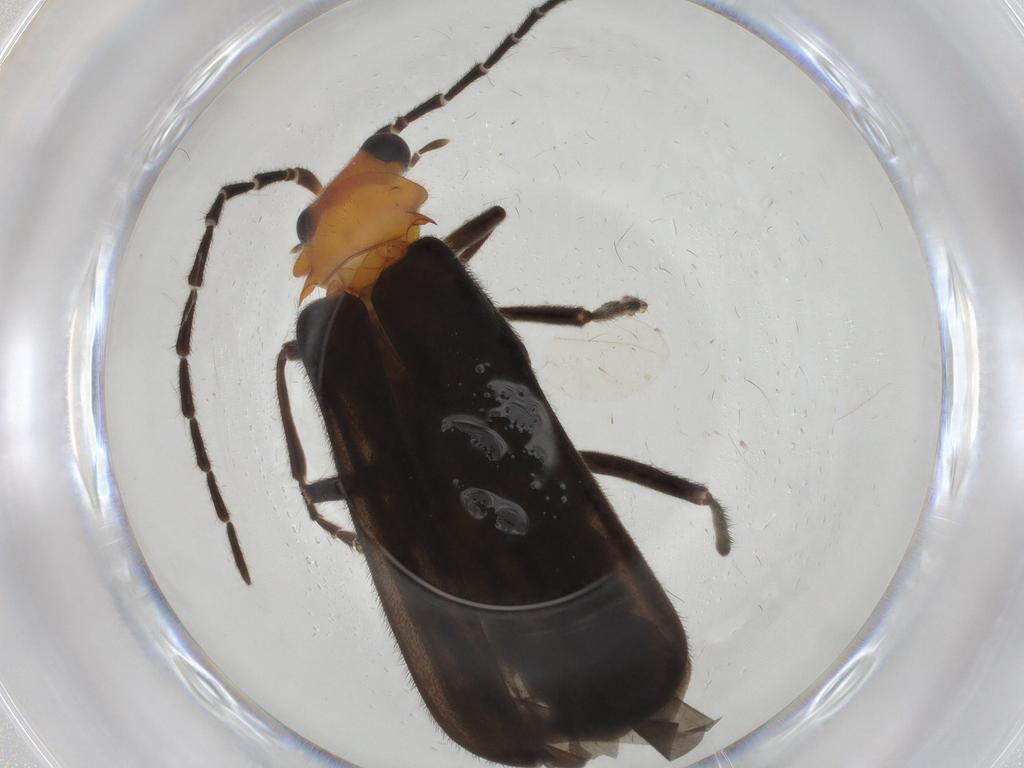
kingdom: Animalia
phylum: Arthropoda
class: Insecta
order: Coleoptera
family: Cantharidae
